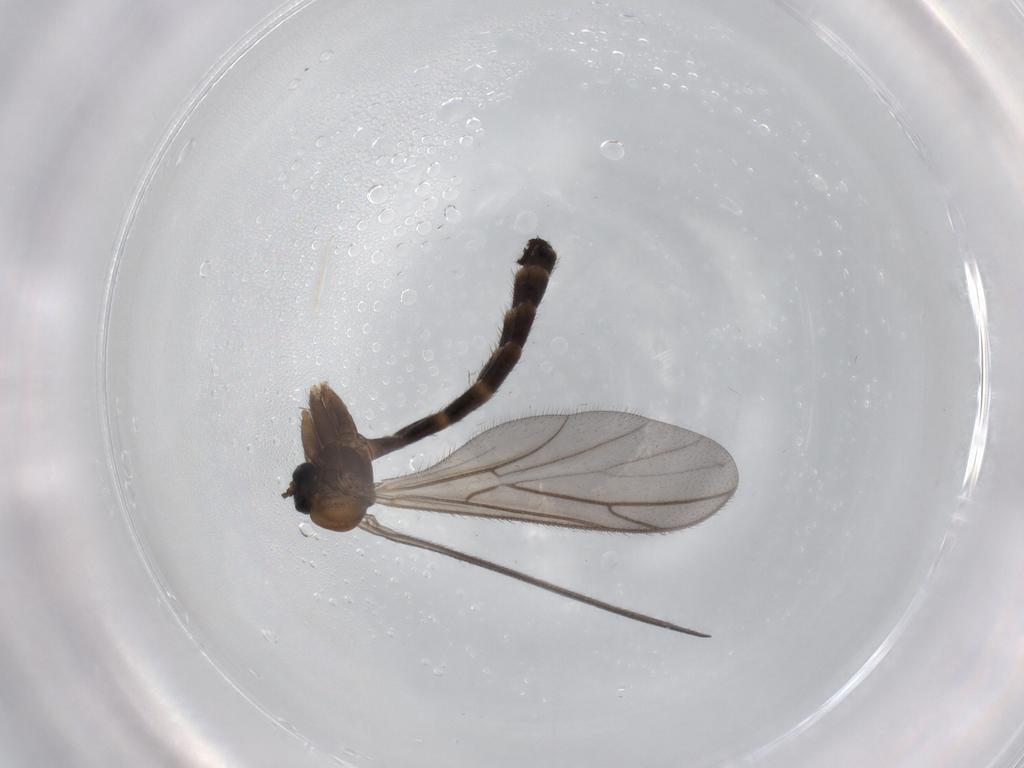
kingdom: Animalia
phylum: Arthropoda
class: Insecta
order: Diptera
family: Keroplatidae
